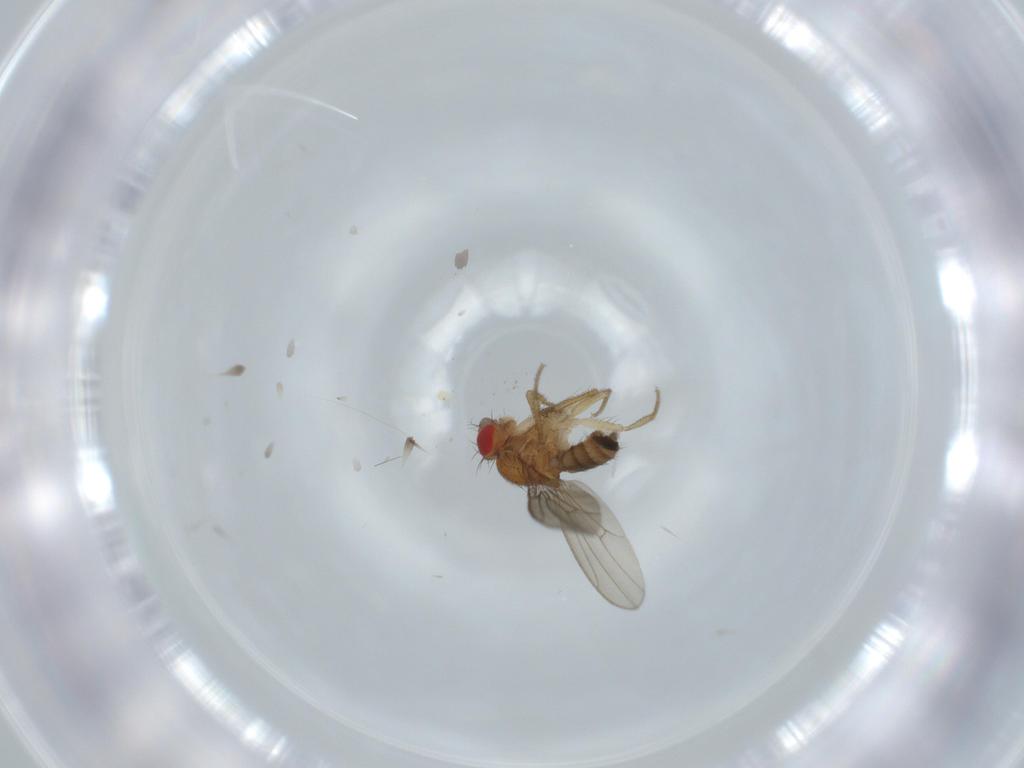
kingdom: Animalia
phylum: Arthropoda
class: Insecta
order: Diptera
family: Drosophilidae
